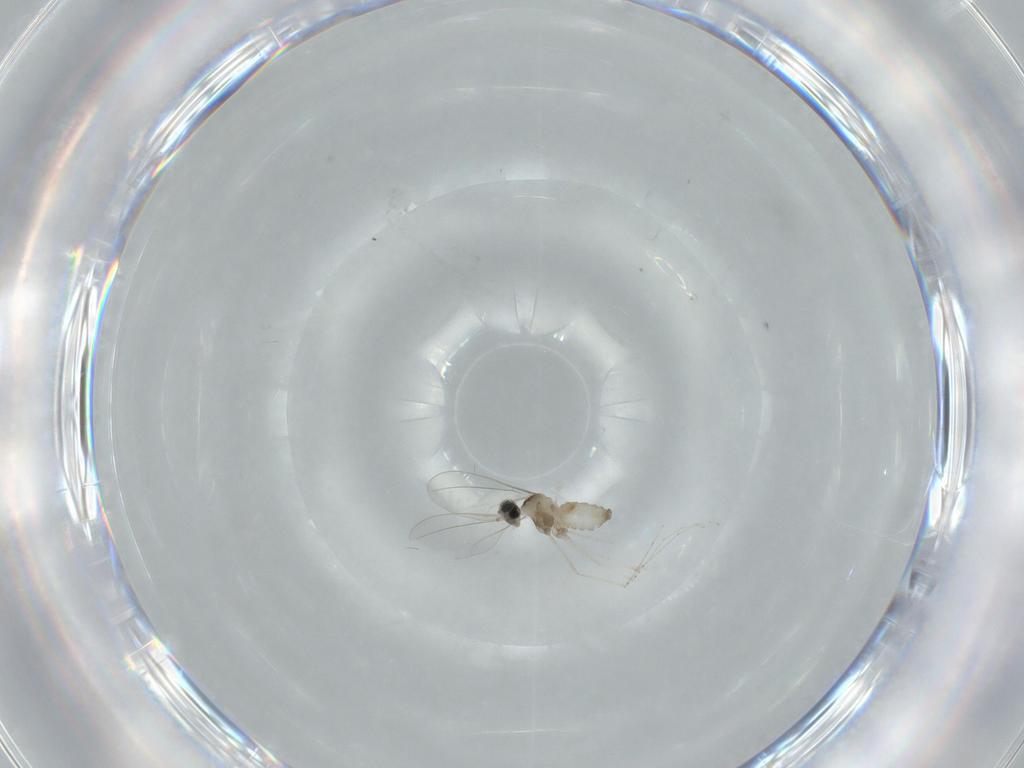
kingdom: Animalia
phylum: Arthropoda
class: Insecta
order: Diptera
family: Cecidomyiidae
